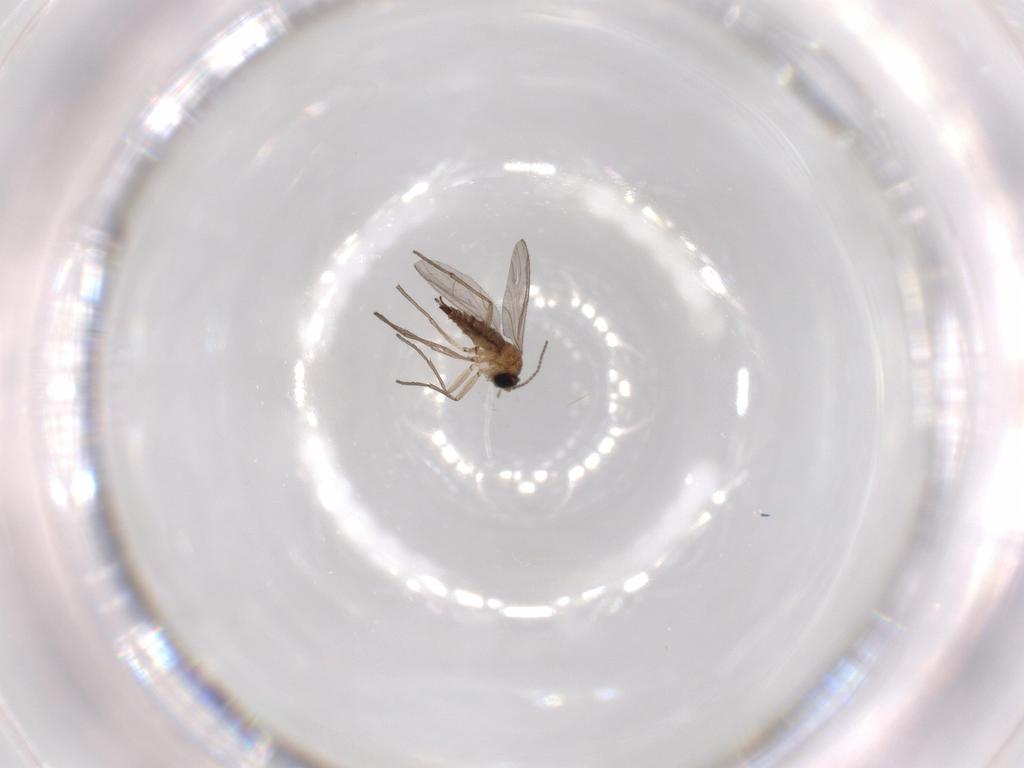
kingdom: Animalia
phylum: Arthropoda
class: Insecta
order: Diptera
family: Sciaridae
